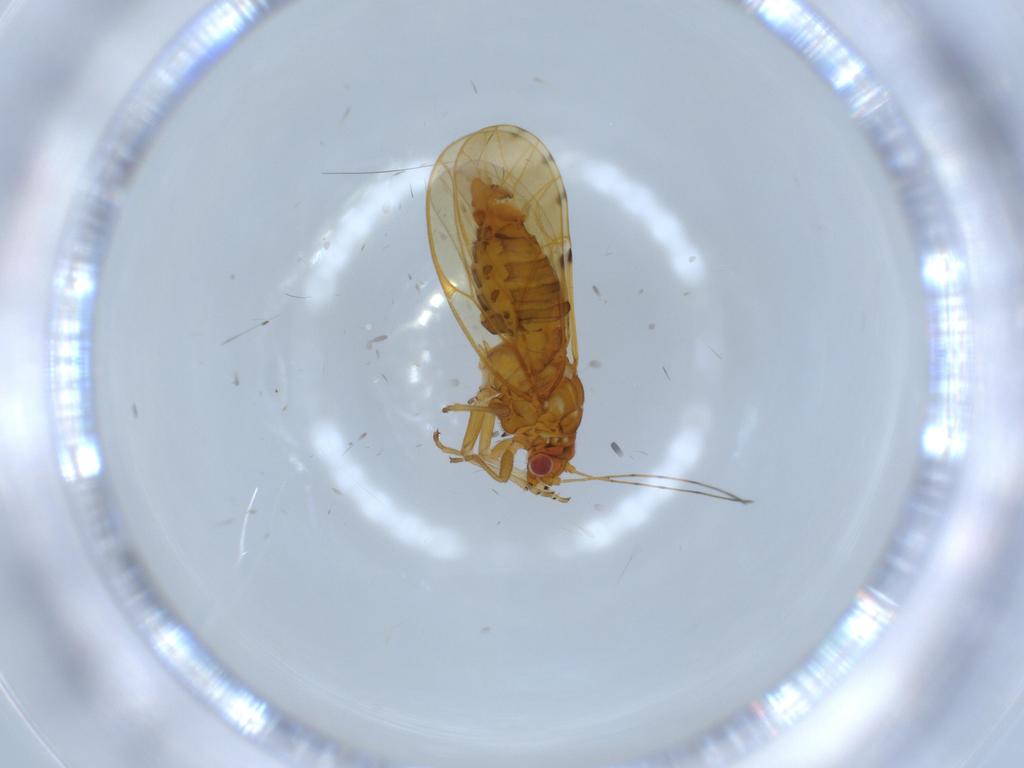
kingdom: Animalia
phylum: Arthropoda
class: Insecta
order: Hemiptera
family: Psylloidea_incertae_sedis
